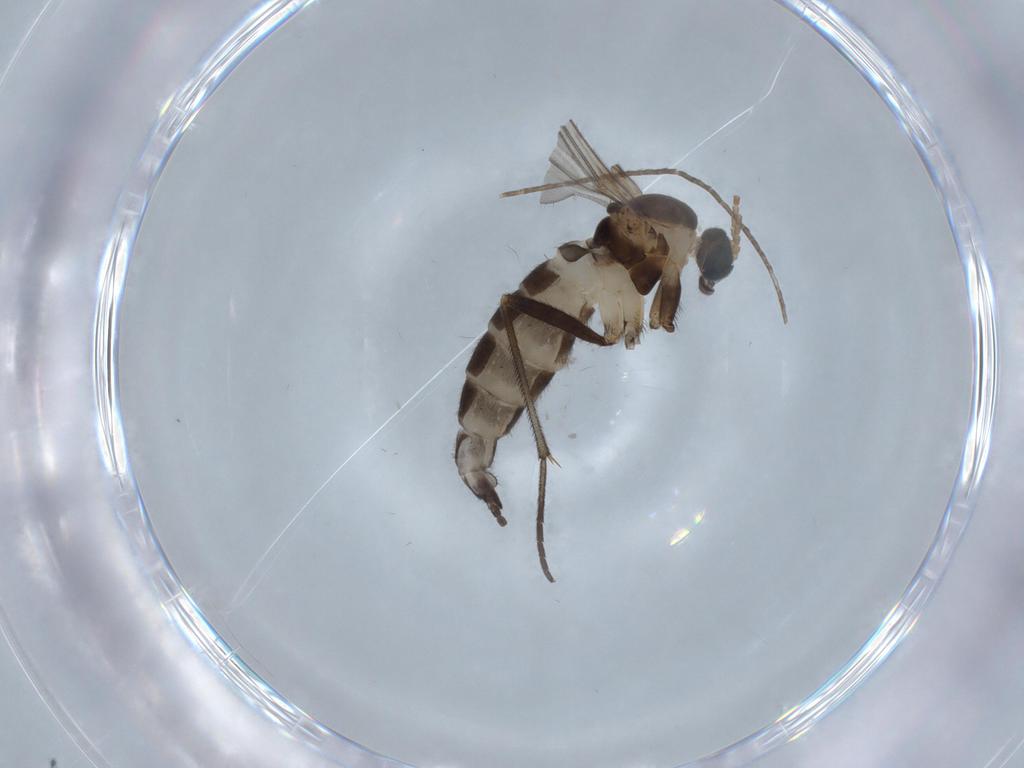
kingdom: Animalia
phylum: Arthropoda
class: Insecta
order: Diptera
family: Sciaridae
